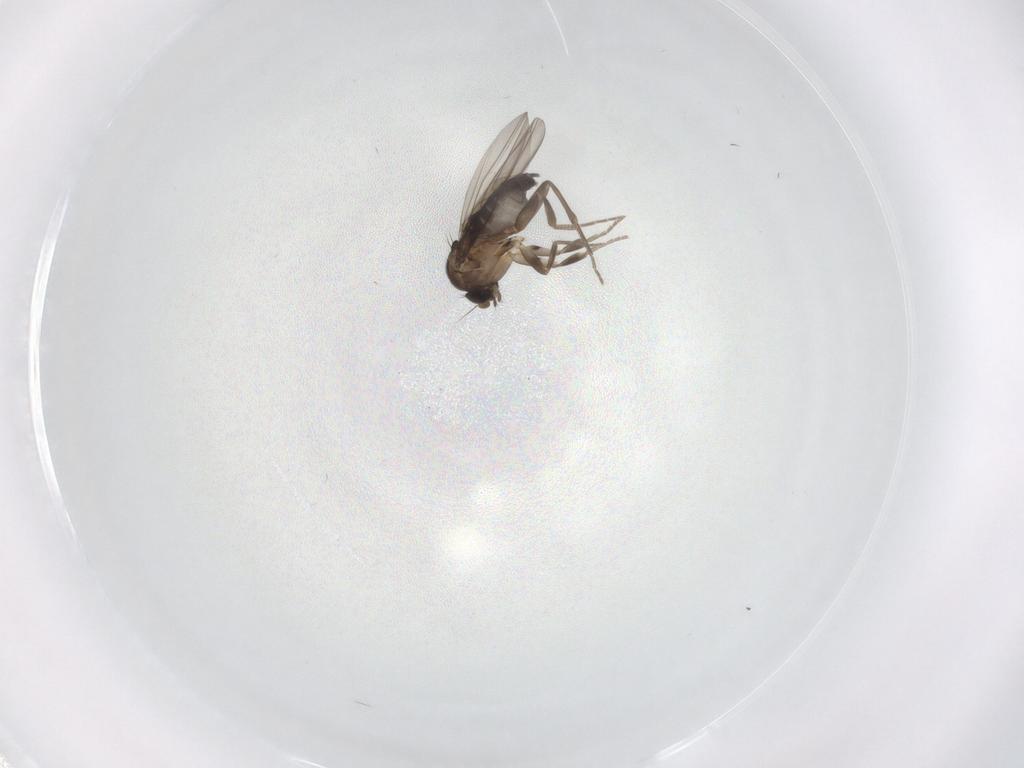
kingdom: Animalia
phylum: Arthropoda
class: Insecta
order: Diptera
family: Phoridae
